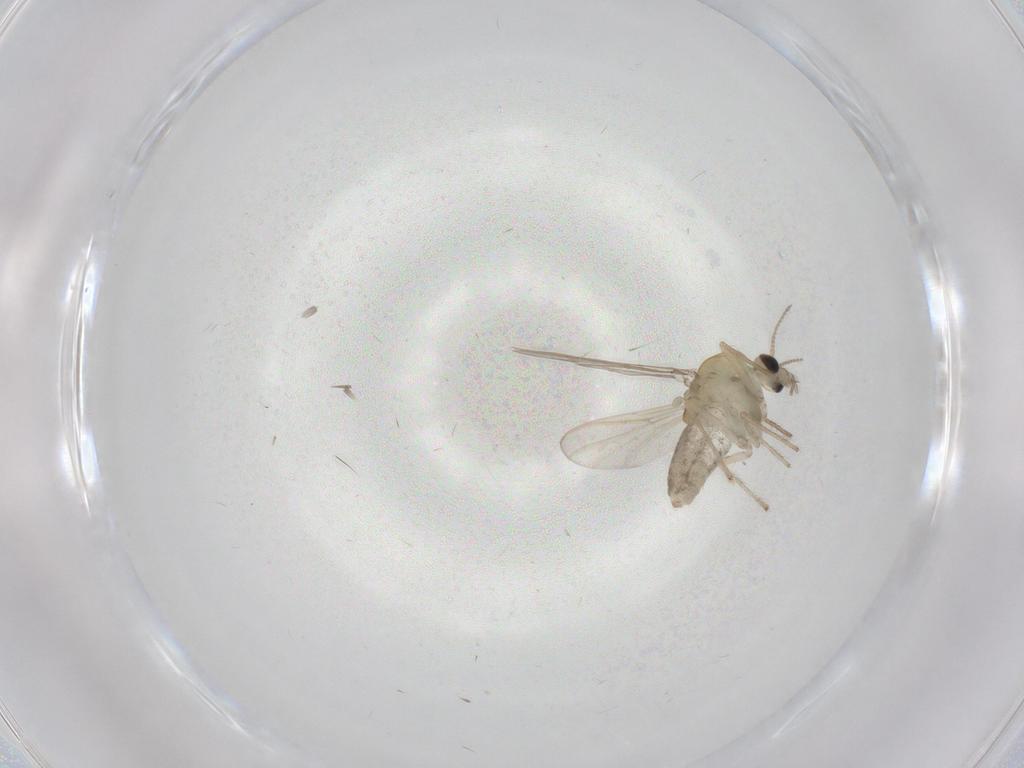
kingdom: Animalia
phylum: Arthropoda
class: Insecta
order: Diptera
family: Chironomidae
